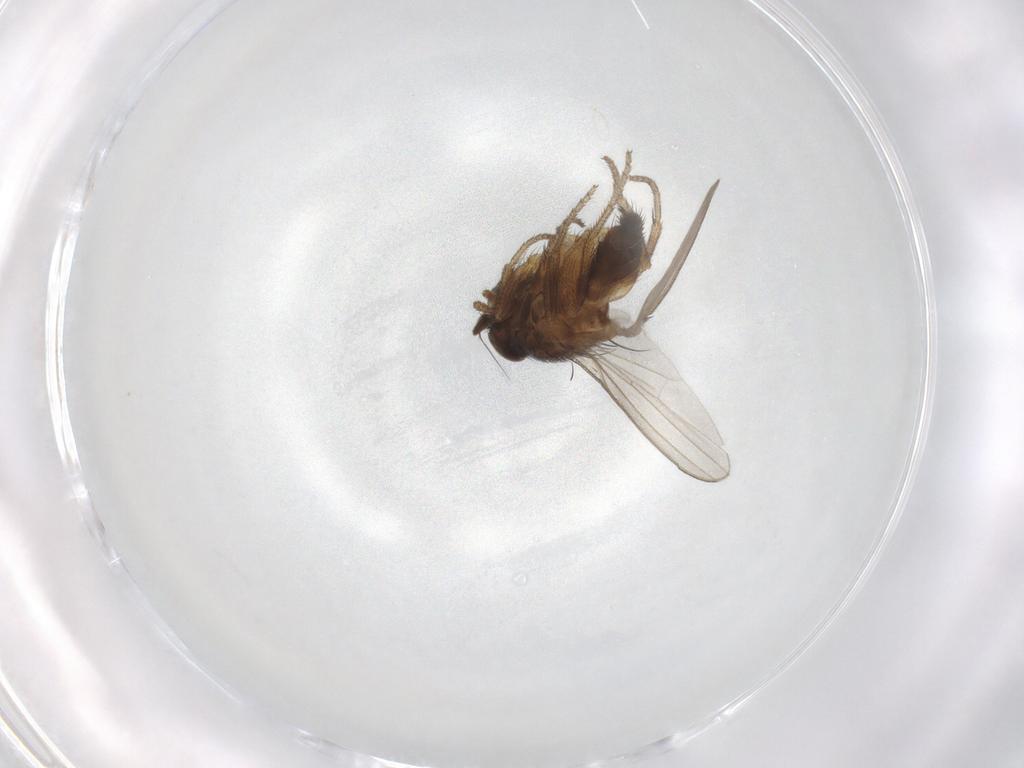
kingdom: Animalia
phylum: Arthropoda
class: Insecta
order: Diptera
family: Milichiidae
